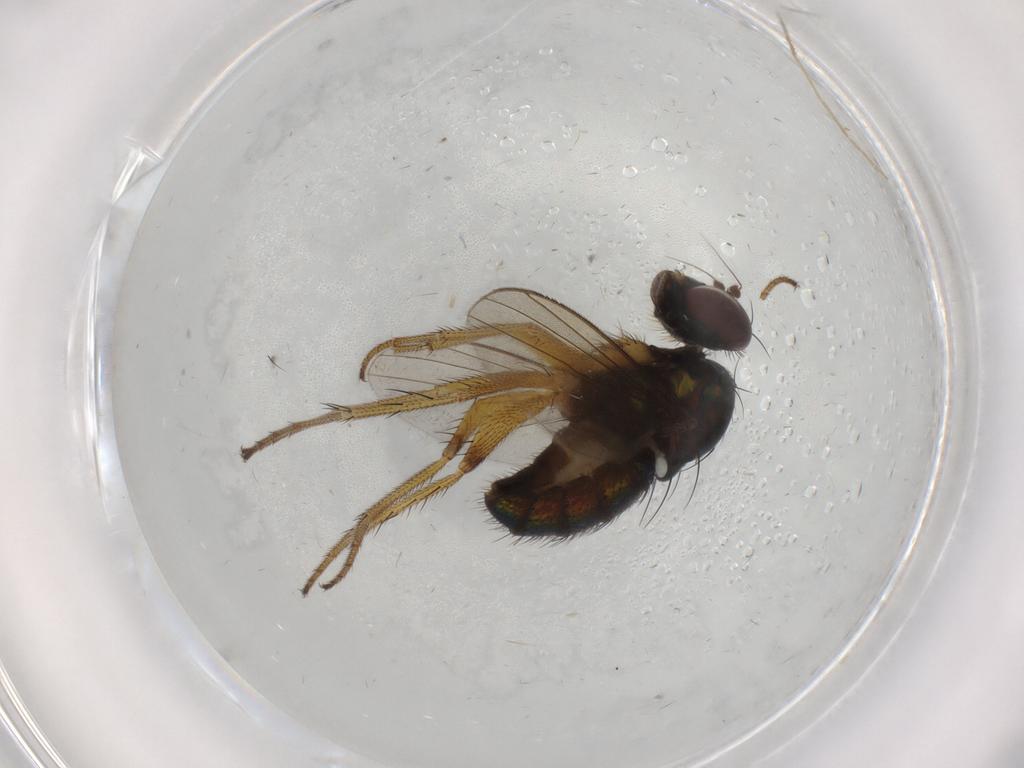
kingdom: Animalia
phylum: Arthropoda
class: Insecta
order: Diptera
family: Dolichopodidae
